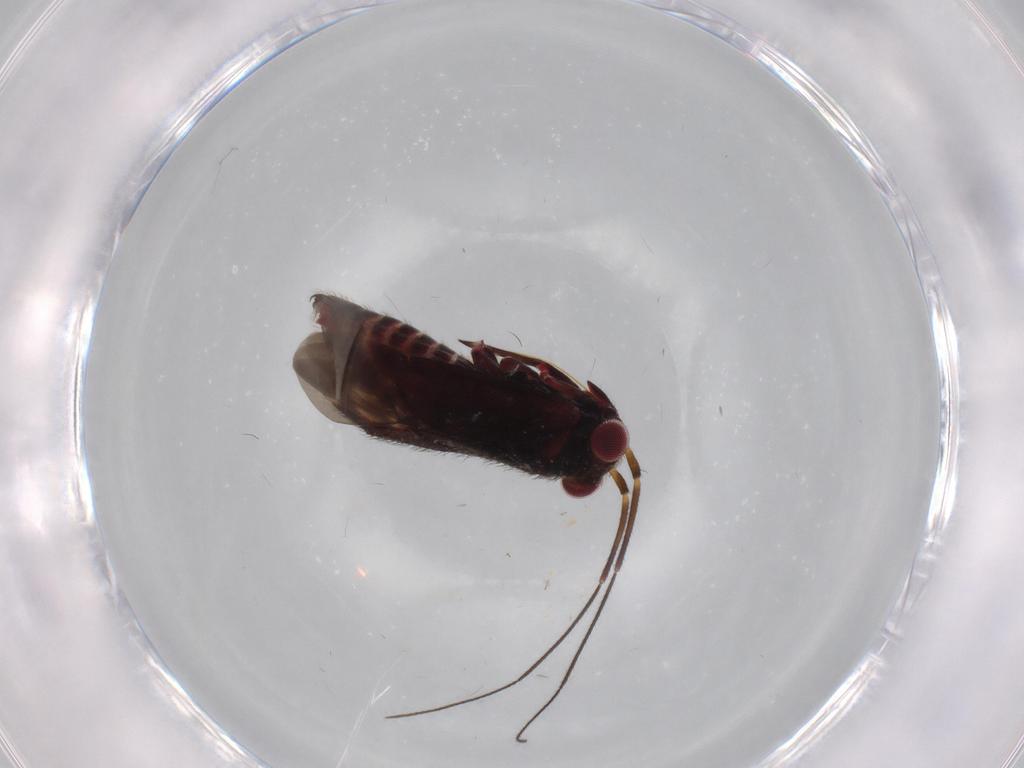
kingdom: Animalia
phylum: Arthropoda
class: Insecta
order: Hemiptera
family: Miridae
